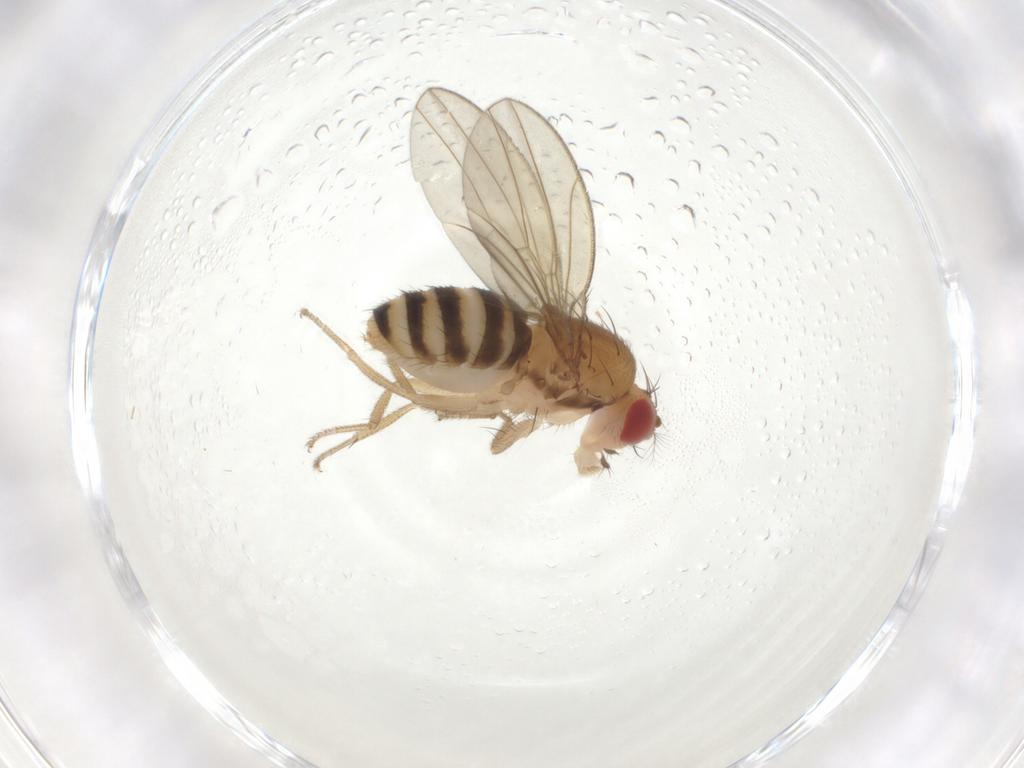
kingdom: Animalia
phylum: Arthropoda
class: Insecta
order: Diptera
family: Drosophilidae
